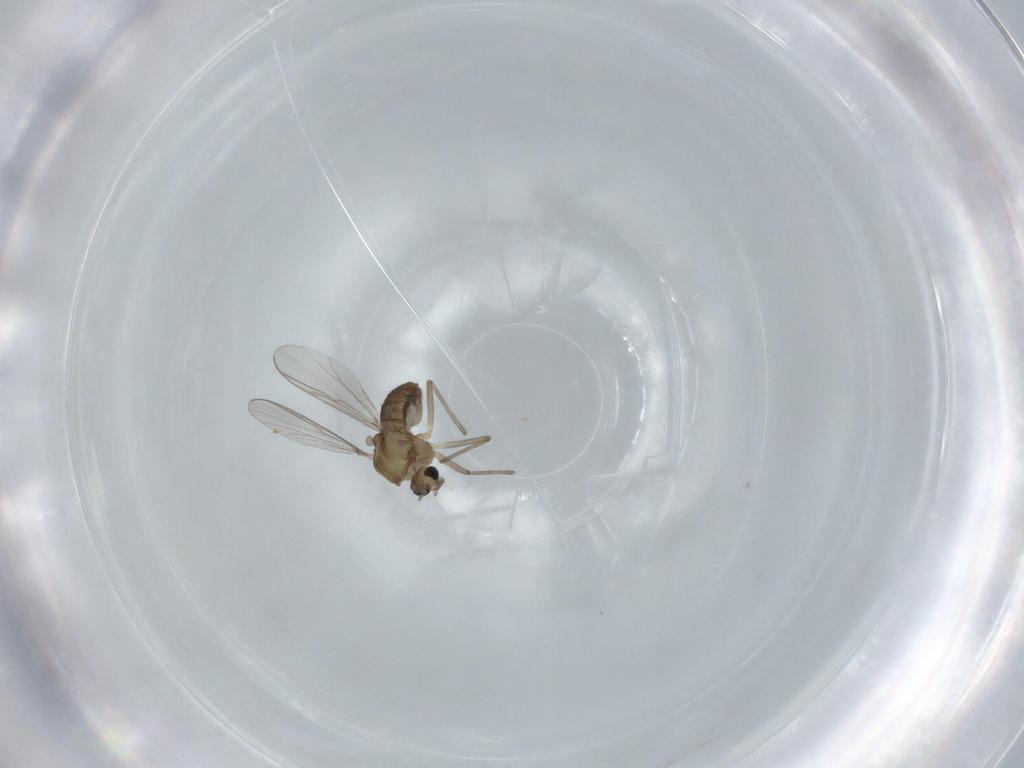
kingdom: Animalia
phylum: Arthropoda
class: Insecta
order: Diptera
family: Chironomidae
